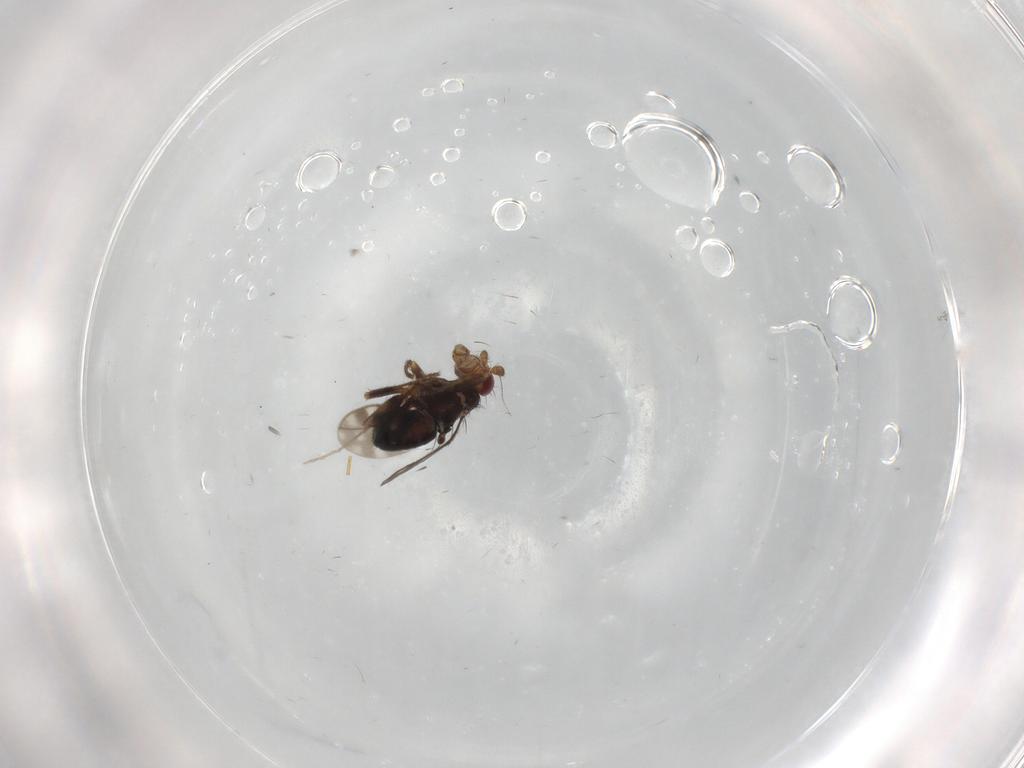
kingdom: Animalia
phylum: Arthropoda
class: Insecta
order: Diptera
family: Sphaeroceridae
